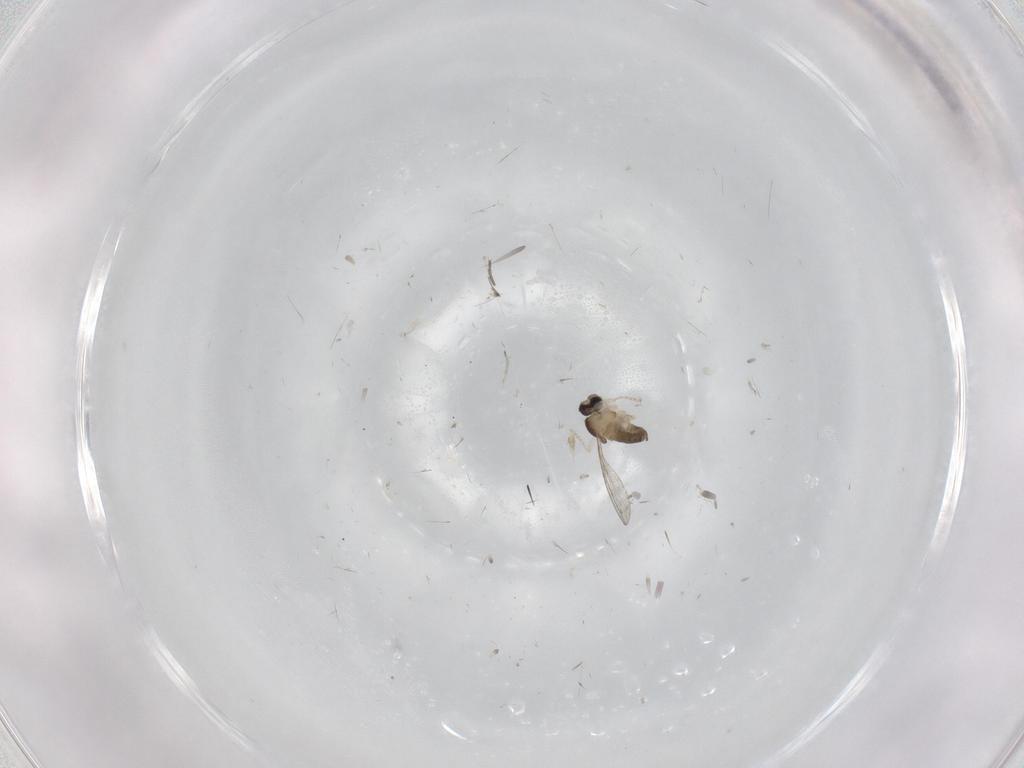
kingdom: Animalia
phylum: Arthropoda
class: Insecta
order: Diptera
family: Cecidomyiidae
